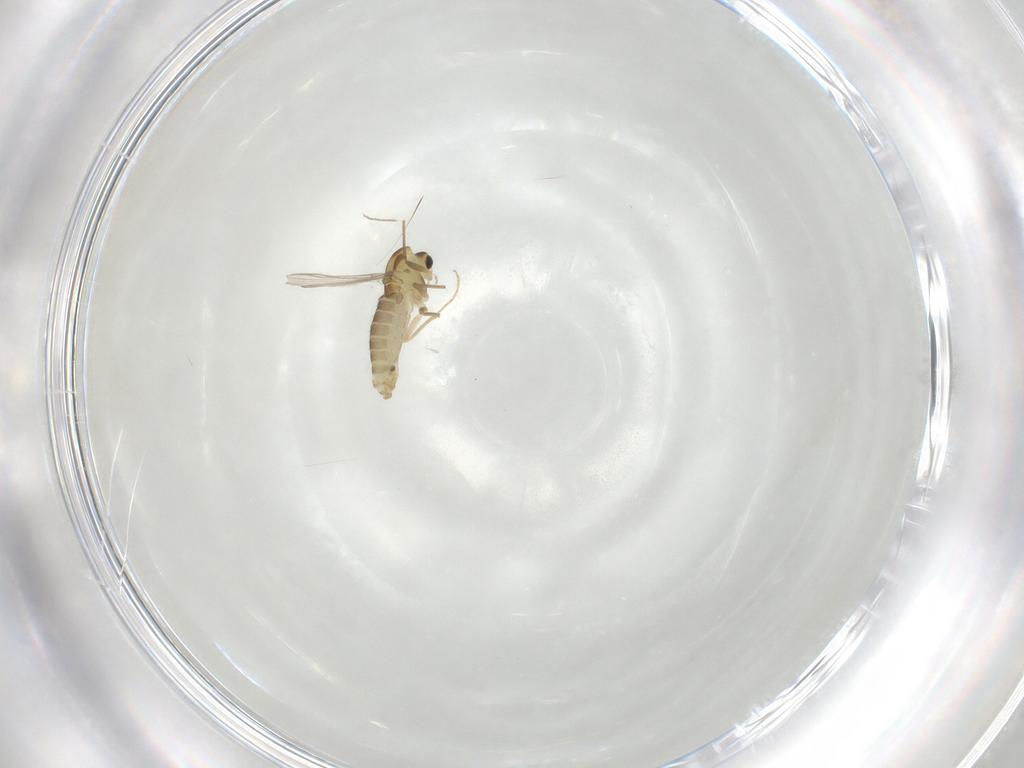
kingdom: Animalia
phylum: Arthropoda
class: Insecta
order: Diptera
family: Chironomidae
